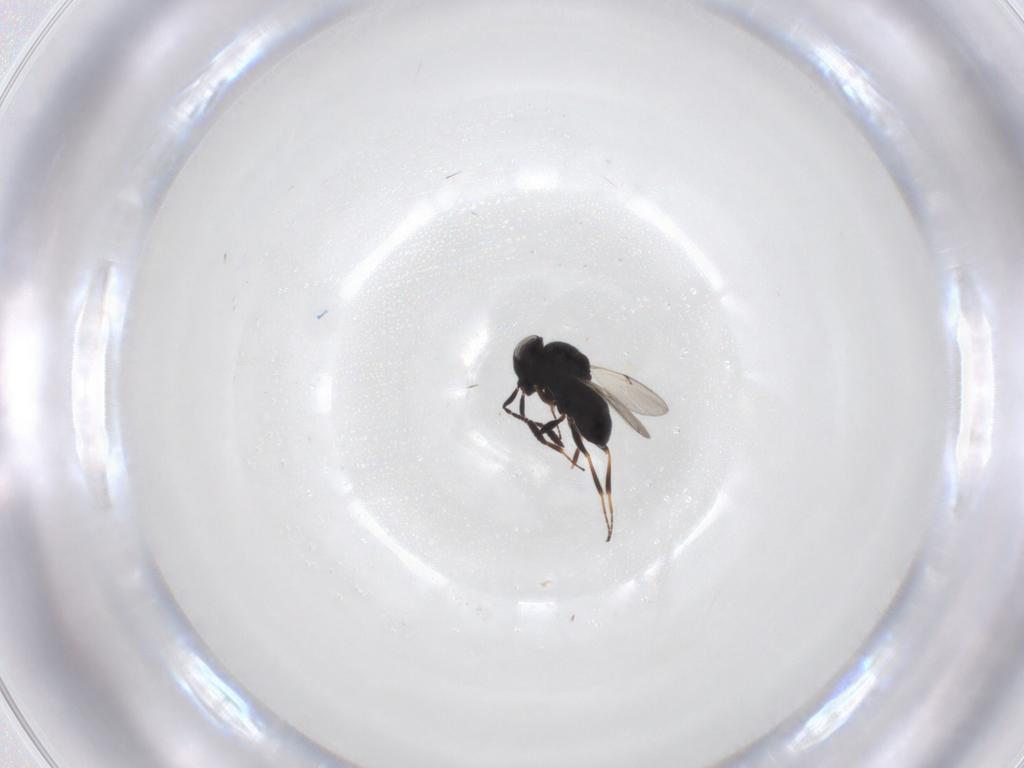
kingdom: Animalia
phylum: Arthropoda
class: Insecta
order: Hymenoptera
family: Scelionidae
